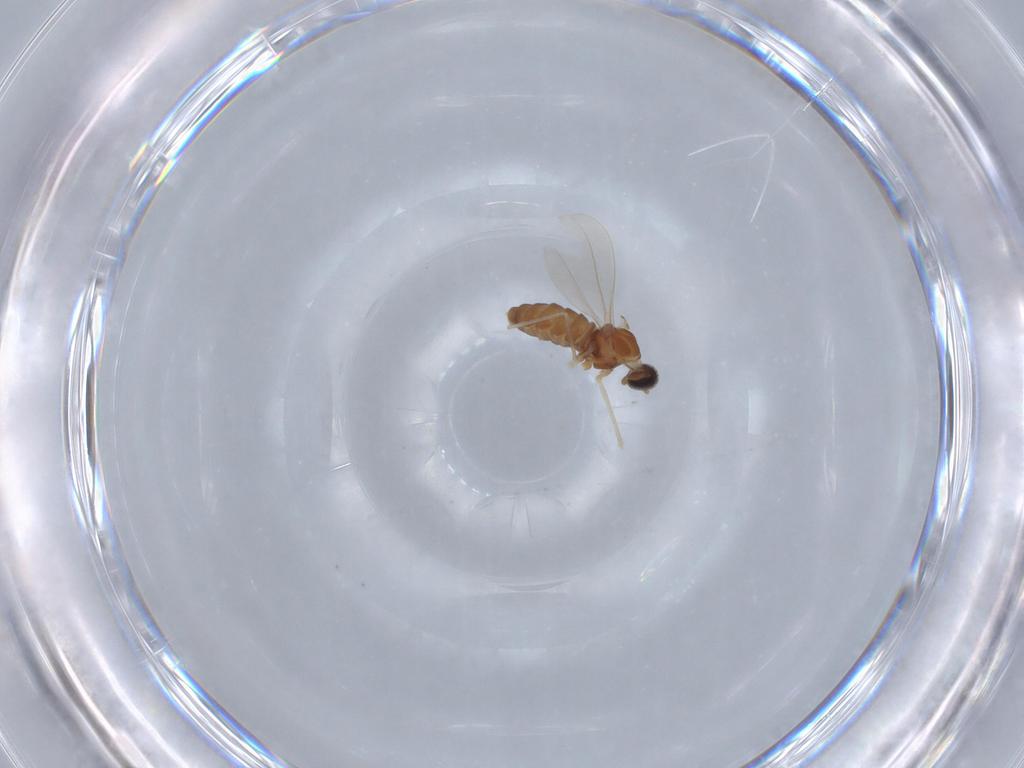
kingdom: Animalia
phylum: Arthropoda
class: Insecta
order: Diptera
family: Cecidomyiidae
